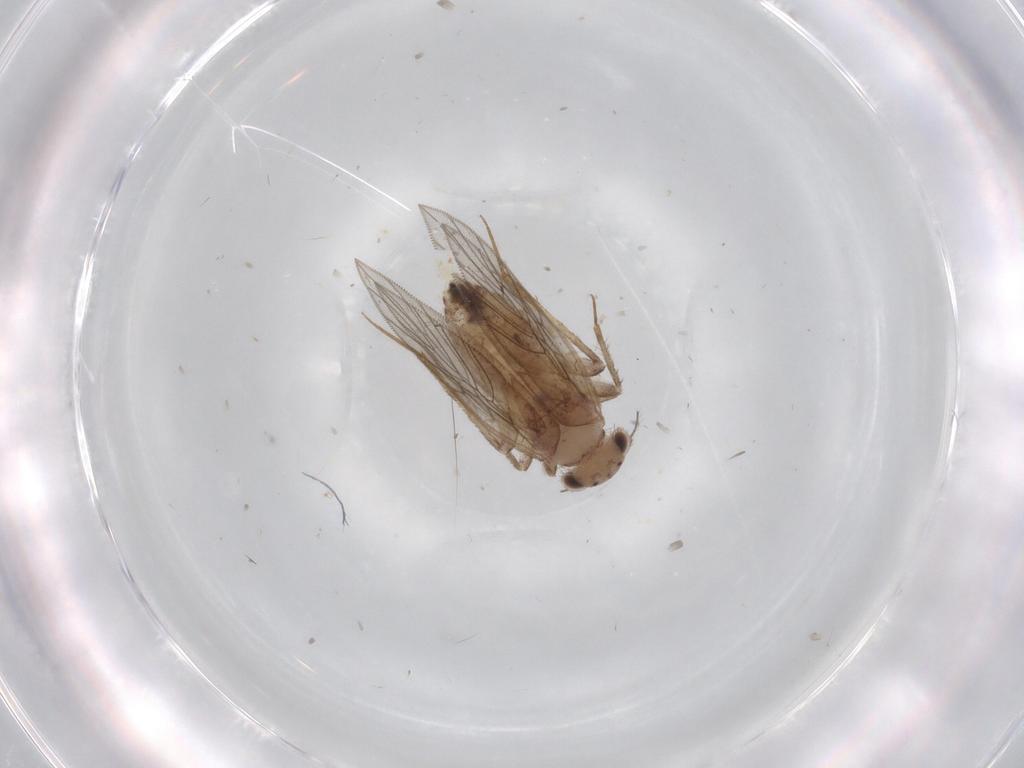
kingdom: Animalia
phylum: Arthropoda
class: Insecta
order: Psocodea
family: Lepidopsocidae
